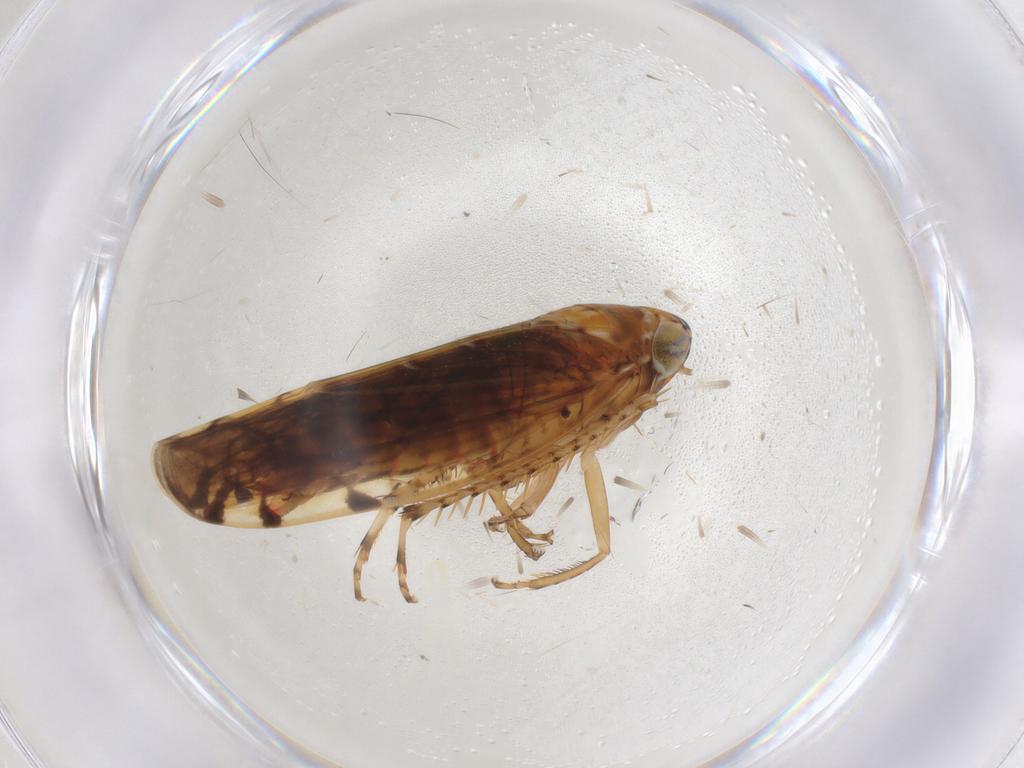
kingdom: Animalia
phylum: Arthropoda
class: Insecta
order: Hemiptera
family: Cicadellidae
